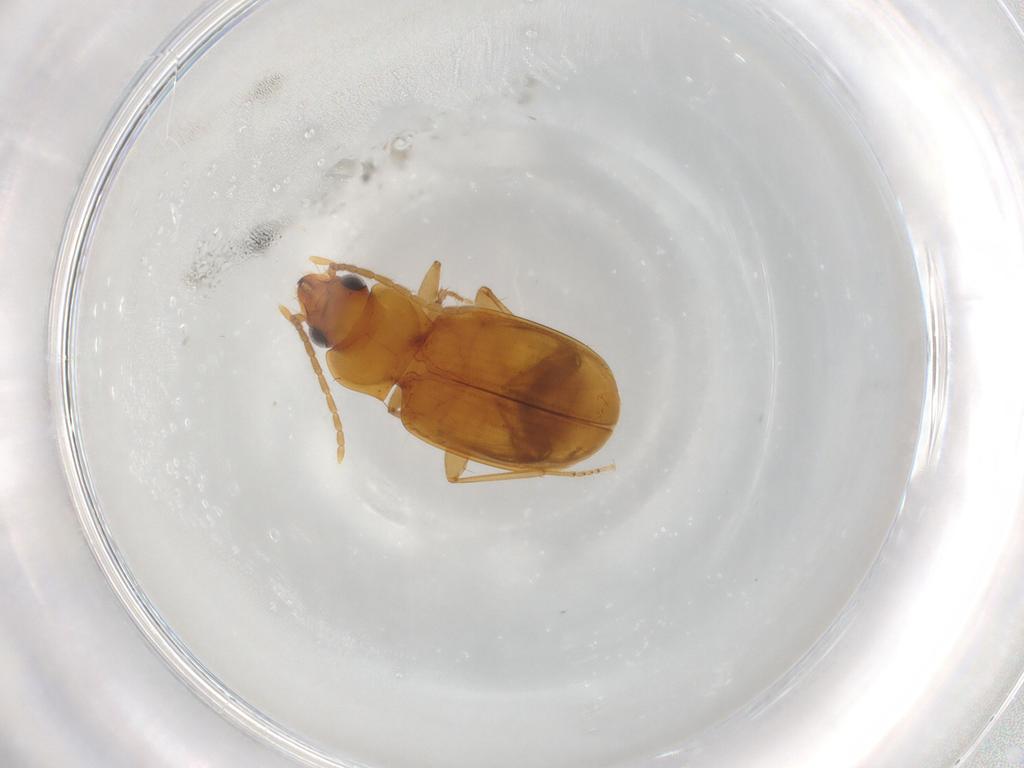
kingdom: Animalia
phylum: Arthropoda
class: Insecta
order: Coleoptera
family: Carabidae
